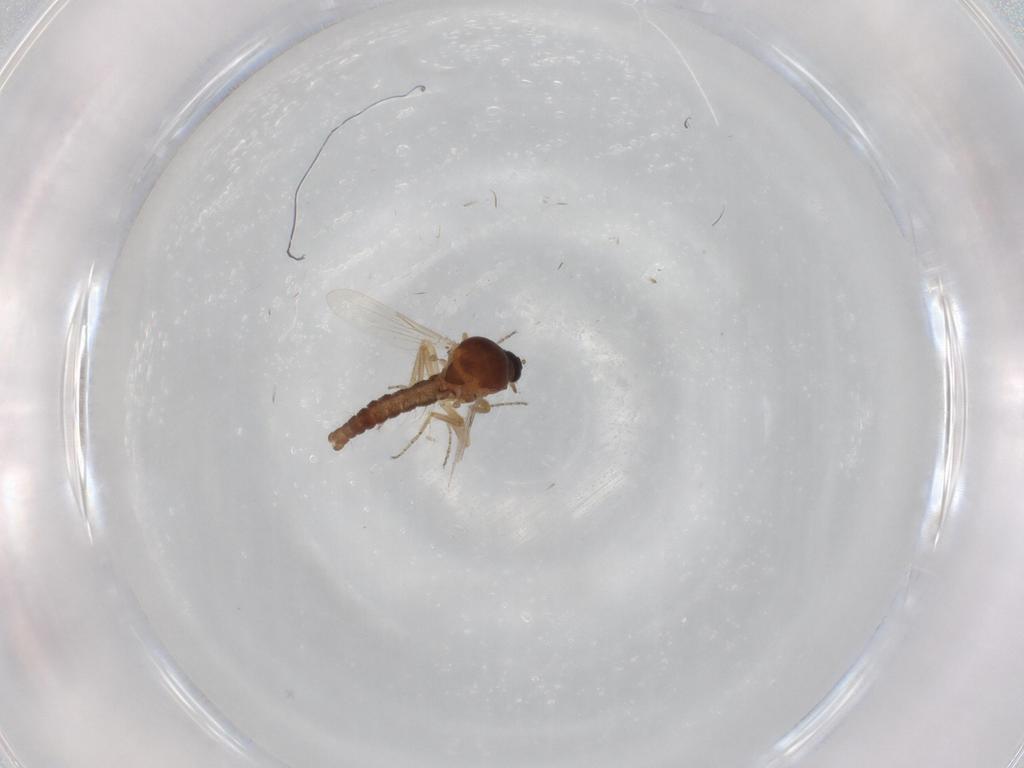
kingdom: Animalia
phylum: Arthropoda
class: Insecta
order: Diptera
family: Ceratopogonidae
